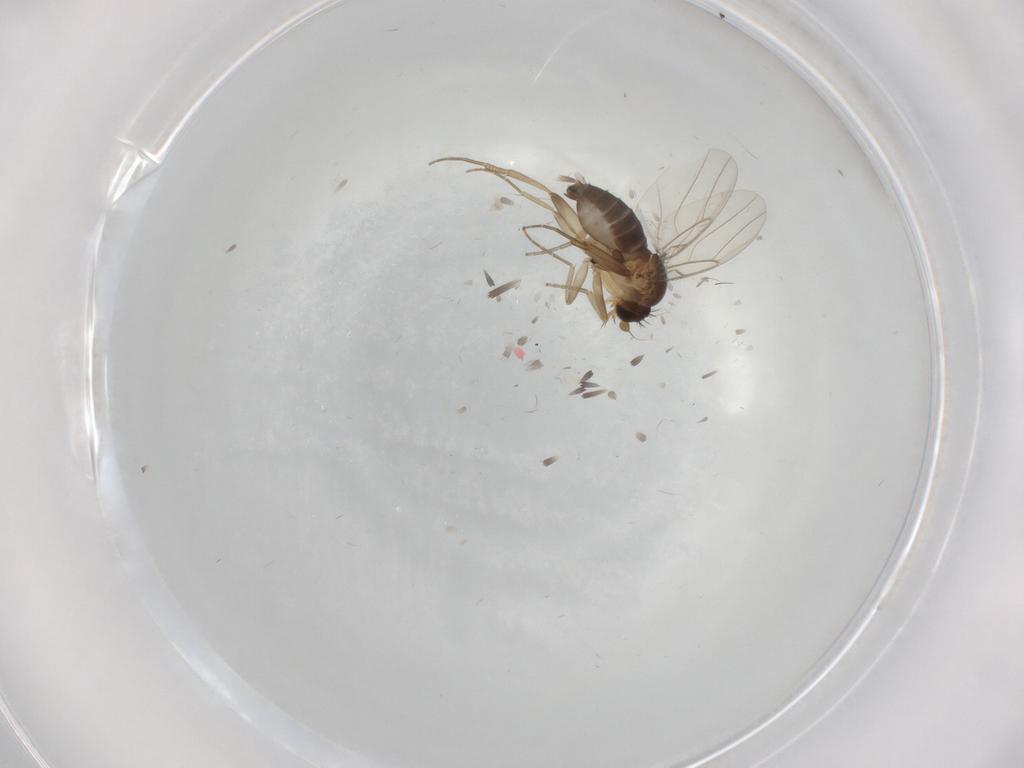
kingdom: Animalia
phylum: Arthropoda
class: Insecta
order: Diptera
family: Phoridae
